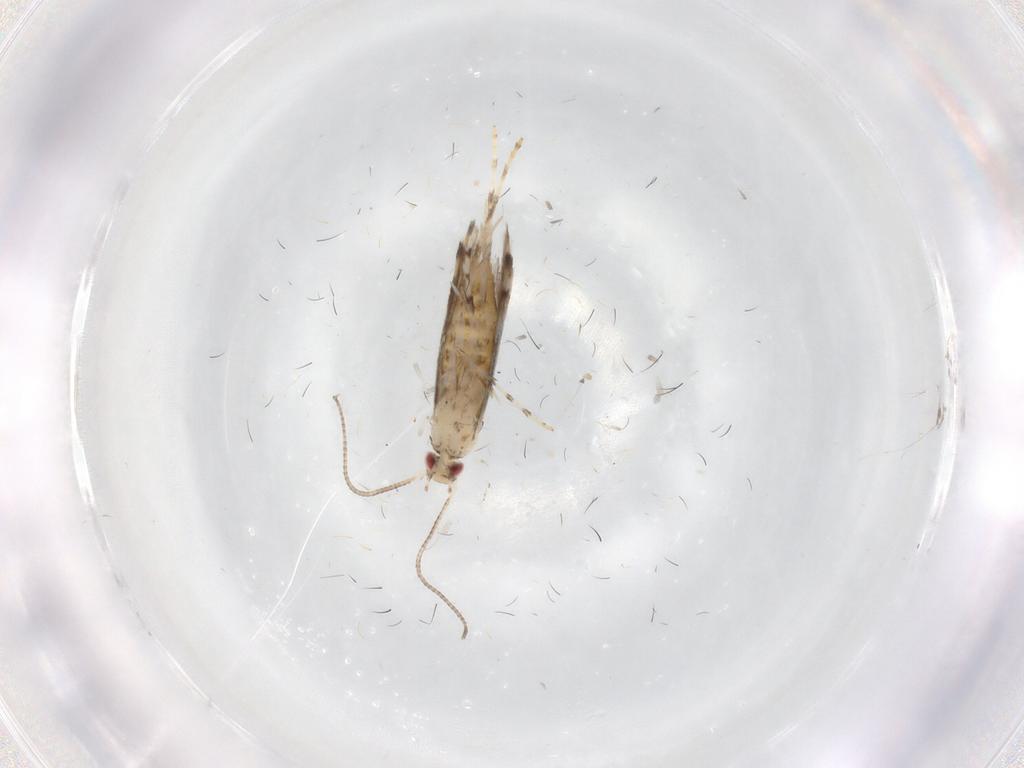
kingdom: Animalia
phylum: Arthropoda
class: Insecta
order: Lepidoptera
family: Gracillariidae
